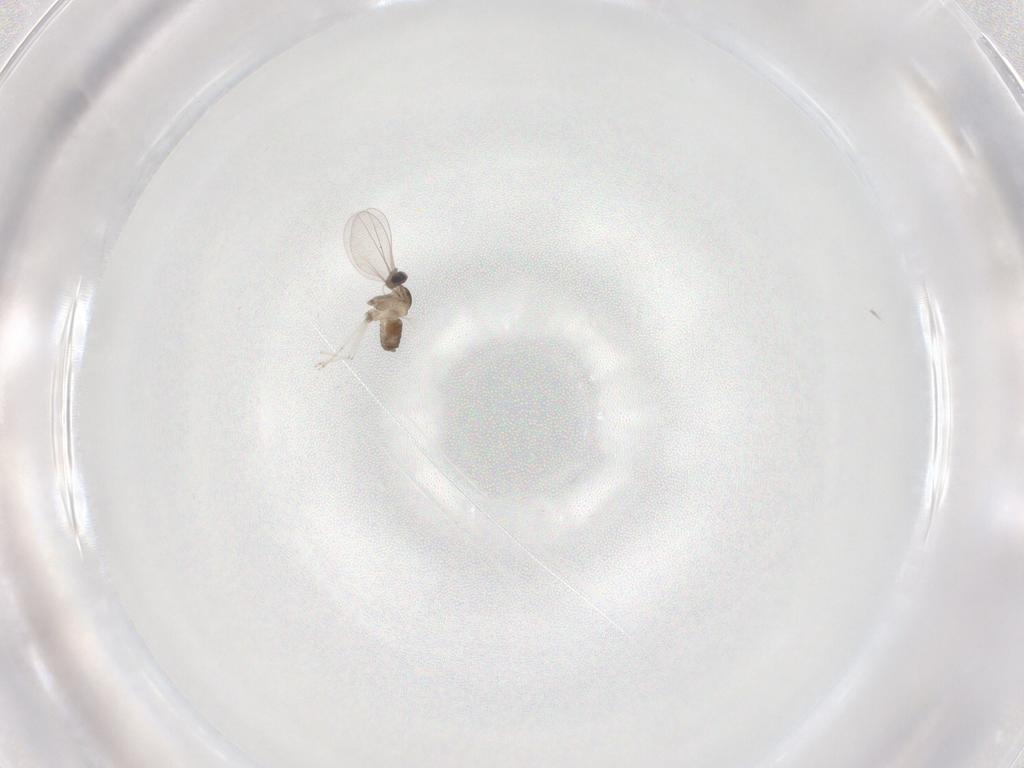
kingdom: Animalia
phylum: Arthropoda
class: Insecta
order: Diptera
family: Cecidomyiidae
